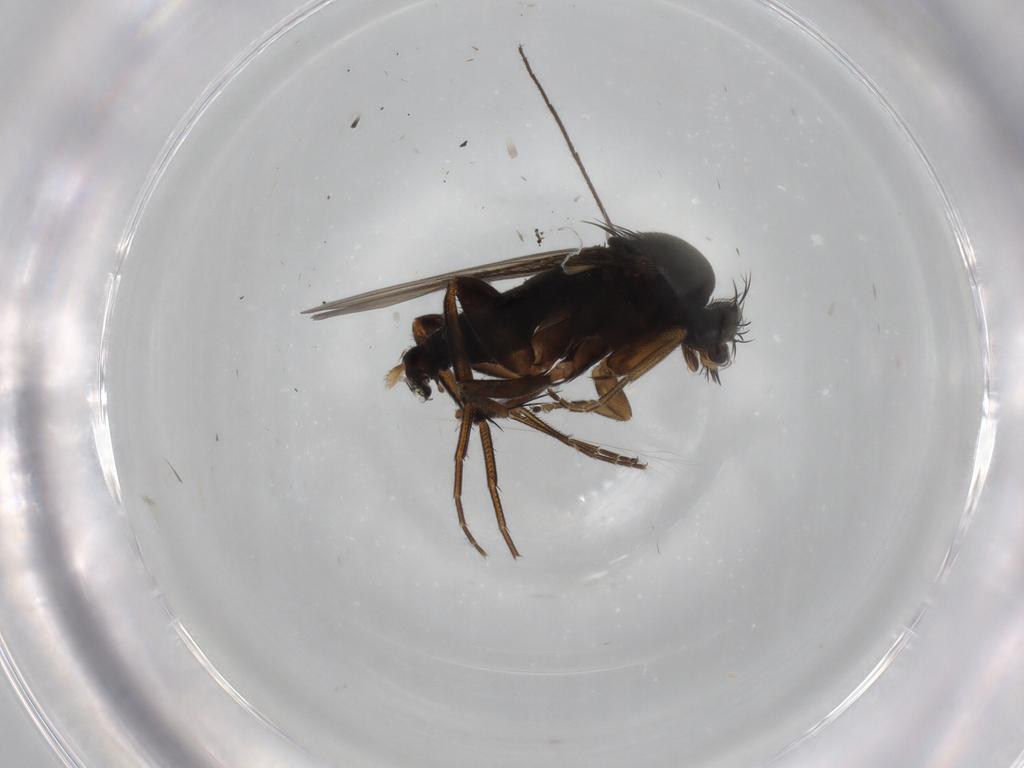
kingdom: Animalia
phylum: Arthropoda
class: Insecta
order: Diptera
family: Phoridae
